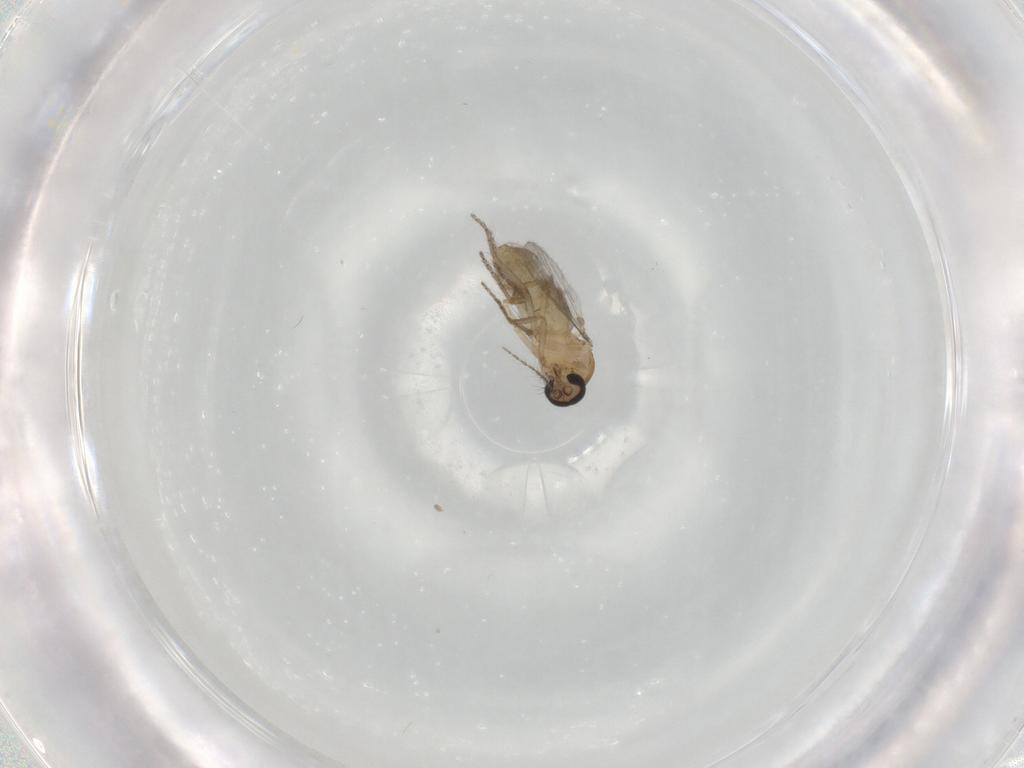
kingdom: Animalia
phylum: Arthropoda
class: Insecta
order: Diptera
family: Ceratopogonidae
